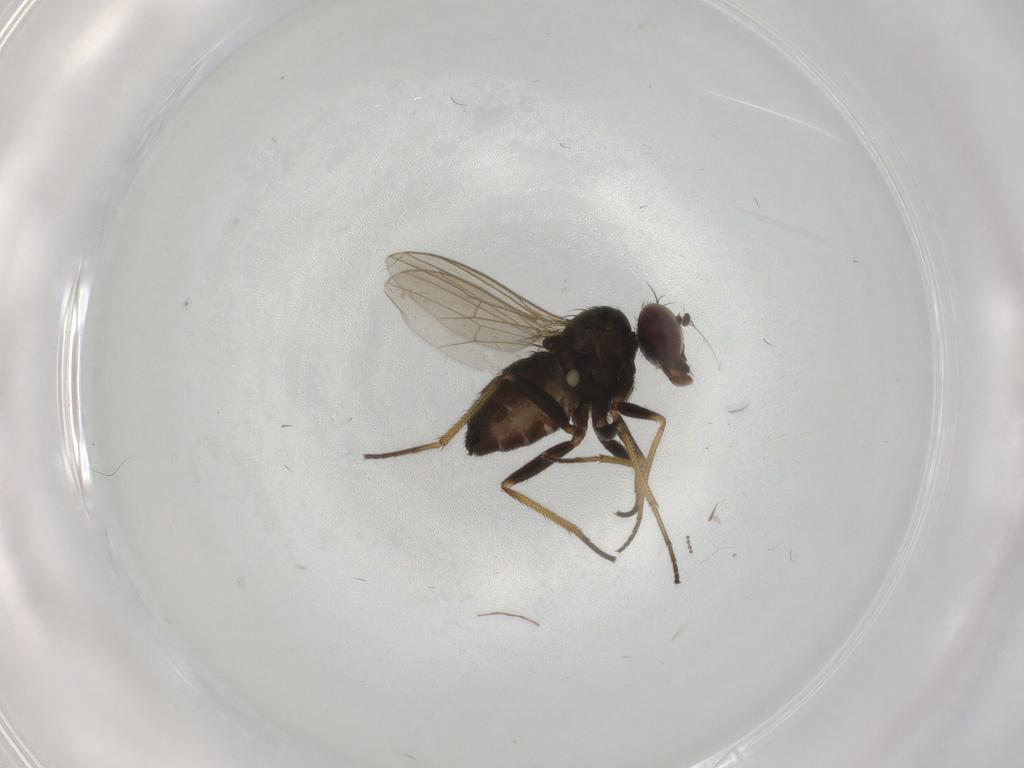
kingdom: Animalia
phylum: Arthropoda
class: Insecta
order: Diptera
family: Dolichopodidae
